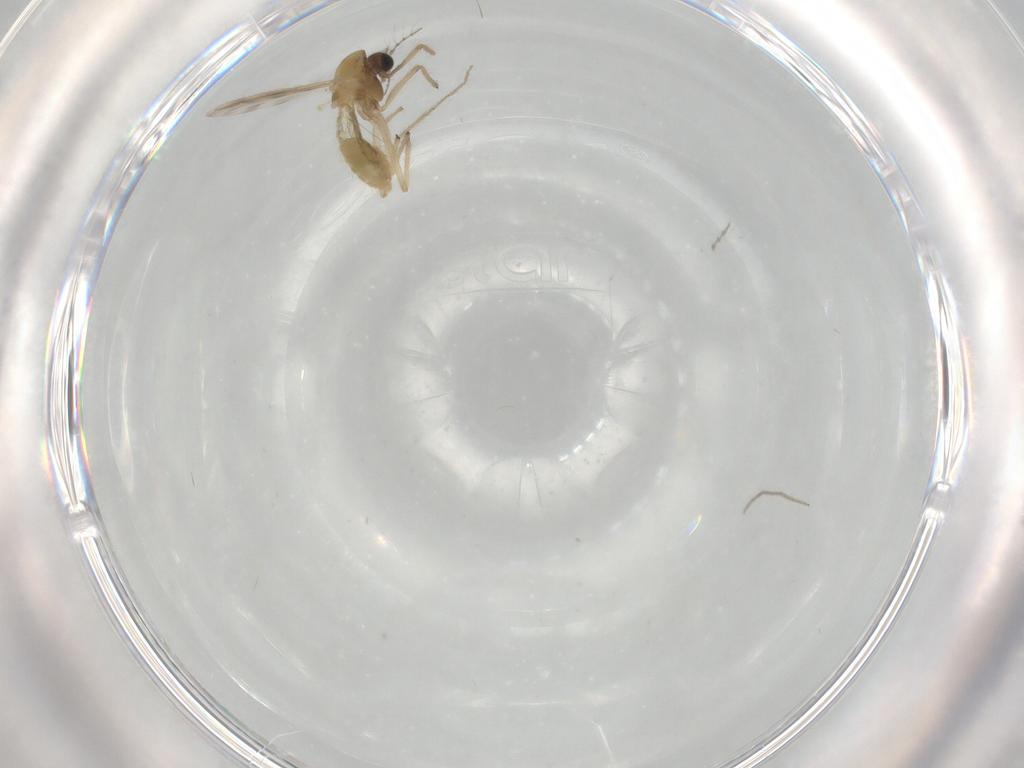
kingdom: Animalia
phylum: Arthropoda
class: Insecta
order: Diptera
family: Chironomidae
